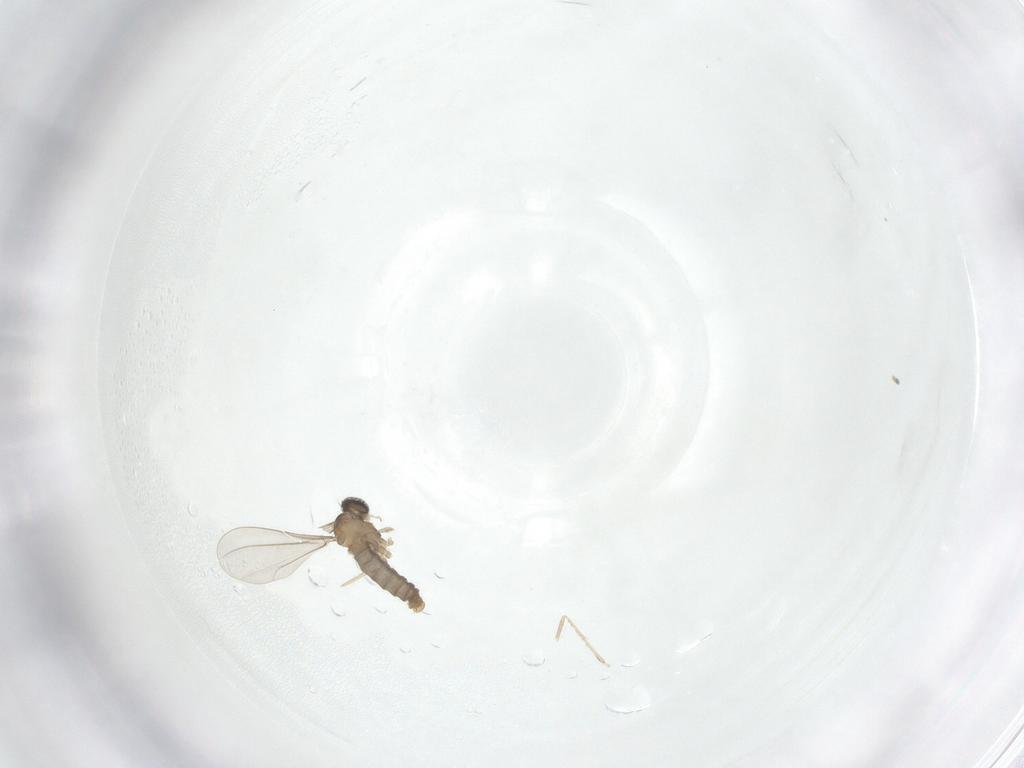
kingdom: Animalia
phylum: Arthropoda
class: Insecta
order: Diptera
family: Cecidomyiidae
